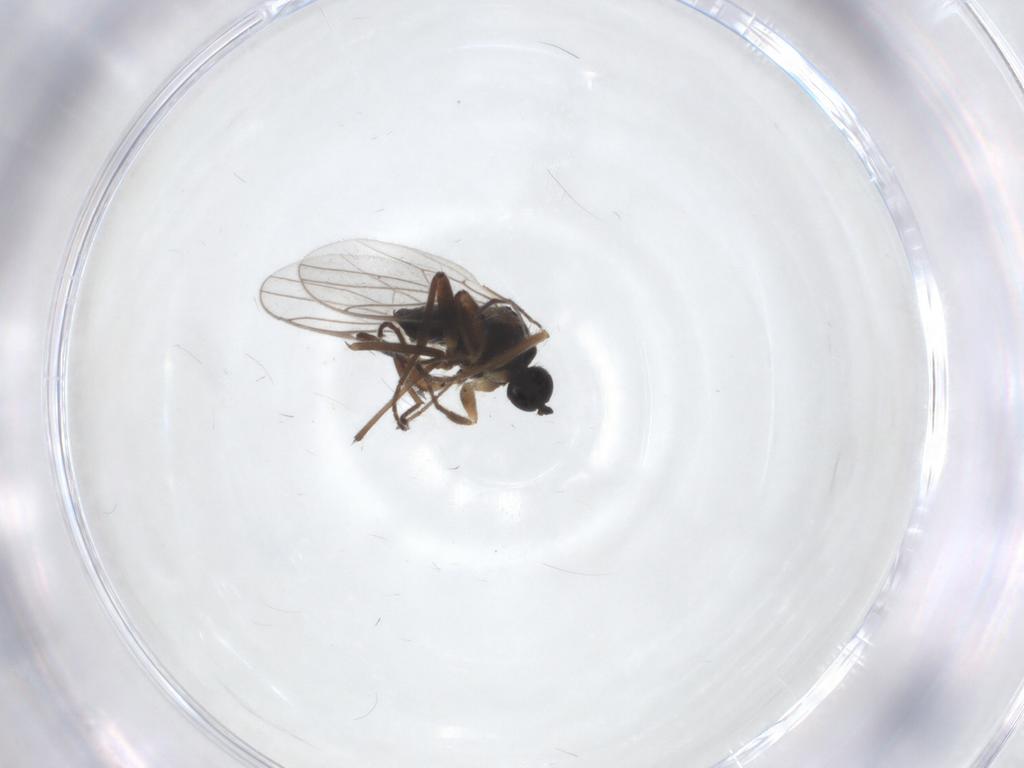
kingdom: Animalia
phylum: Arthropoda
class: Insecta
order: Diptera
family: Hybotidae
